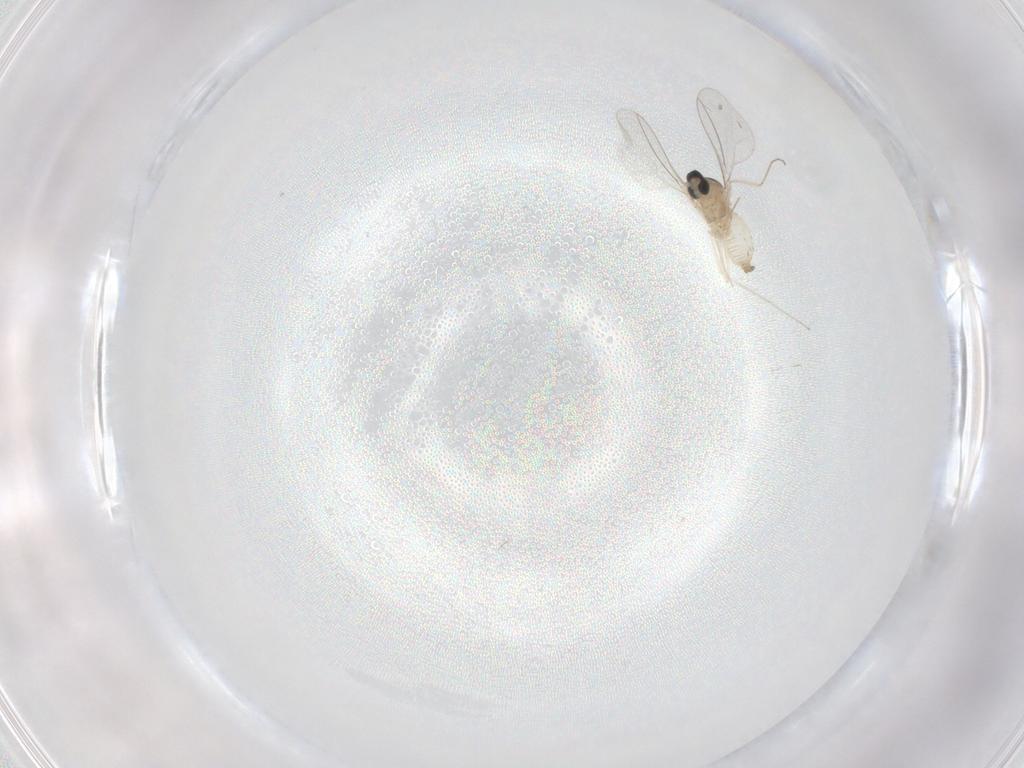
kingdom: Animalia
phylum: Arthropoda
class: Insecta
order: Diptera
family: Cecidomyiidae
